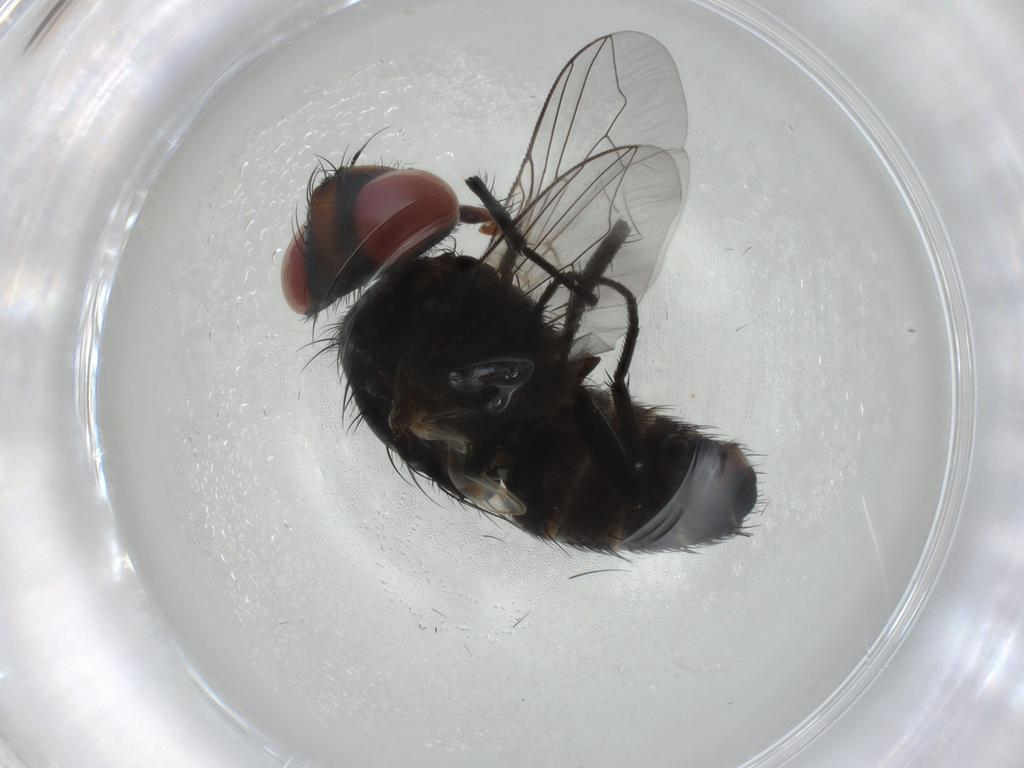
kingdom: Animalia
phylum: Arthropoda
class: Insecta
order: Diptera
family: Sarcophagidae
